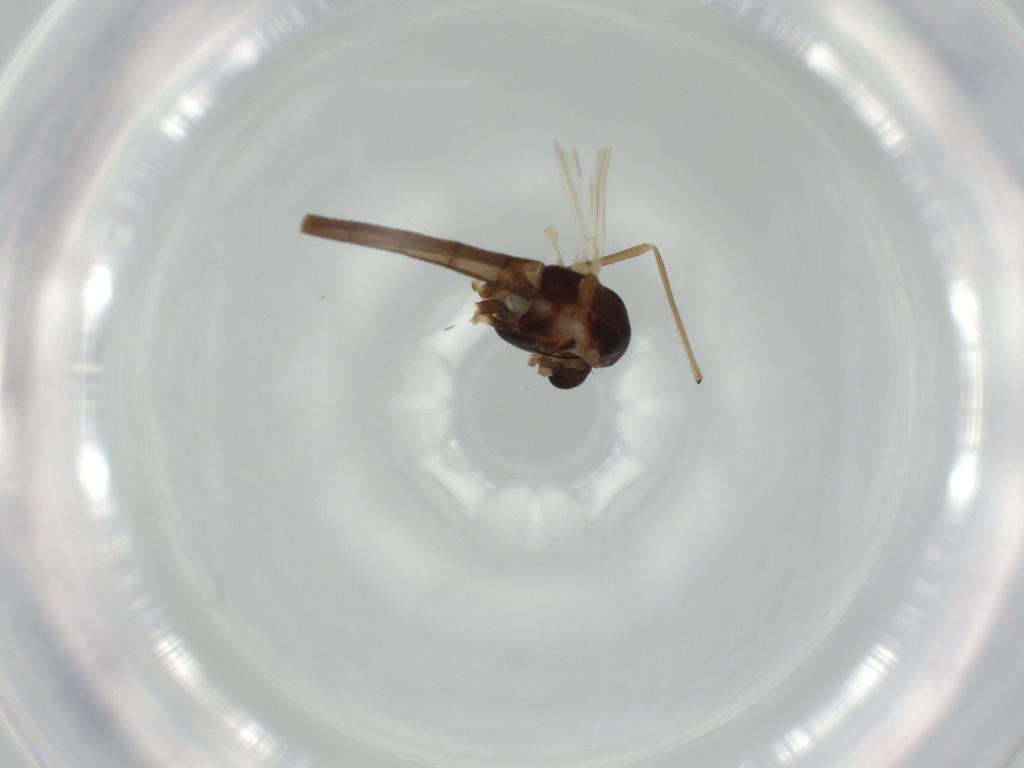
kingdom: Animalia
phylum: Arthropoda
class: Insecta
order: Diptera
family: Chironomidae
